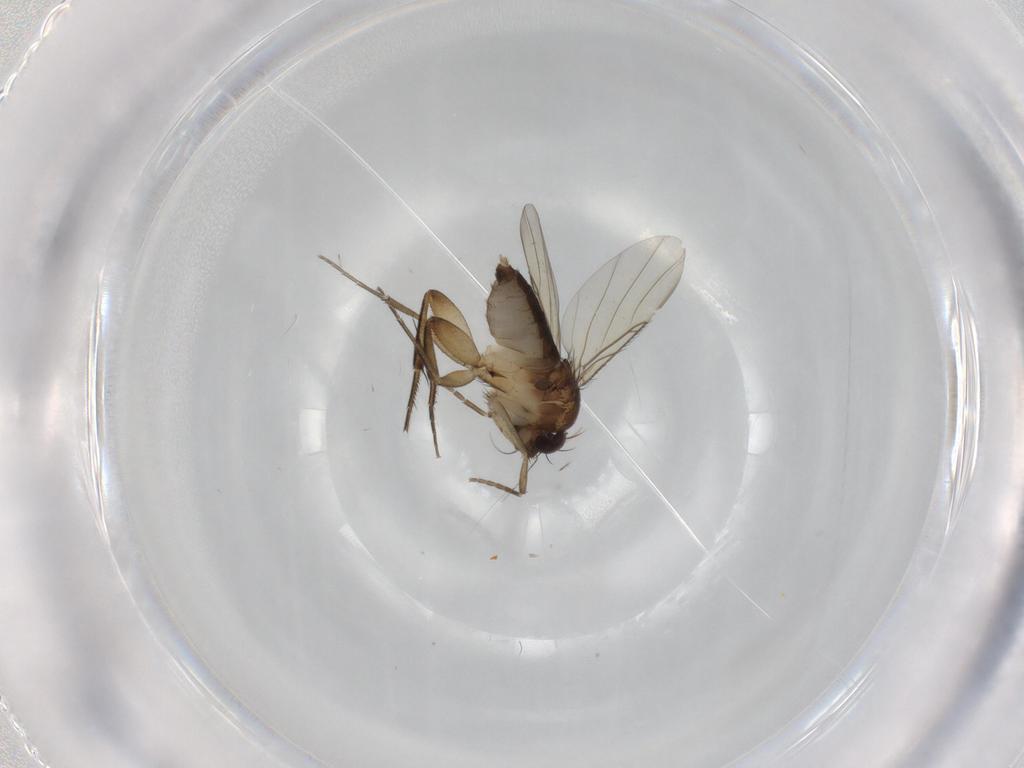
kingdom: Animalia
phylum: Arthropoda
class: Insecta
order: Diptera
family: Phoridae
